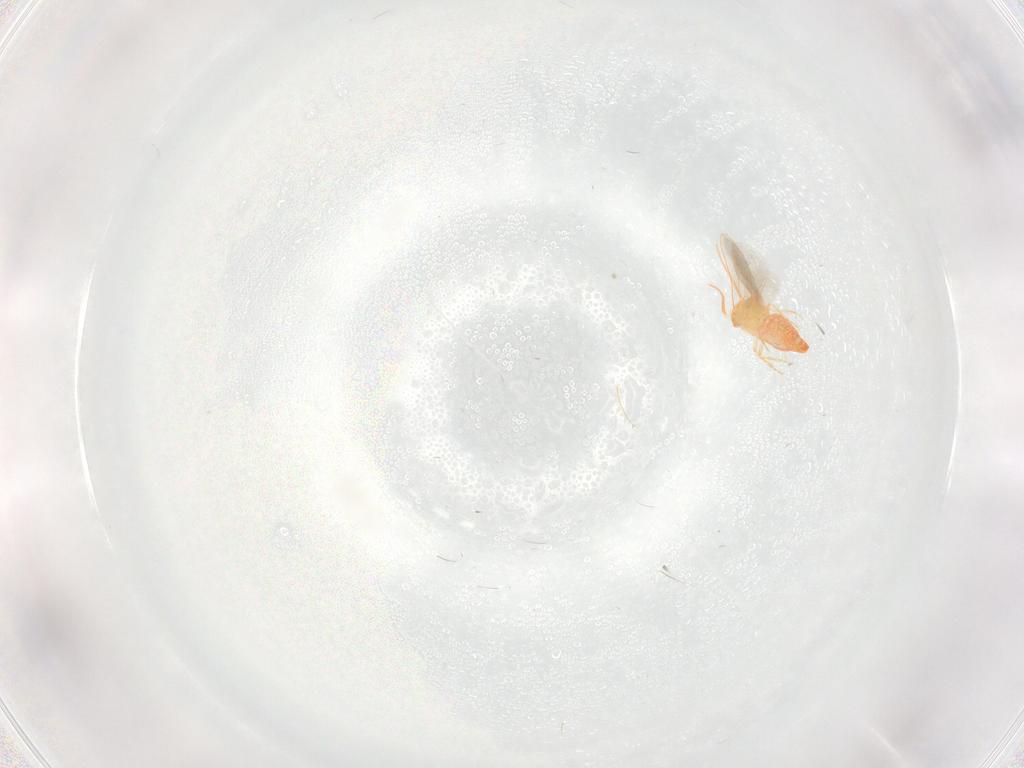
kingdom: Animalia
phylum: Arthropoda
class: Insecta
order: Hemiptera
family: Aleyrodidae
